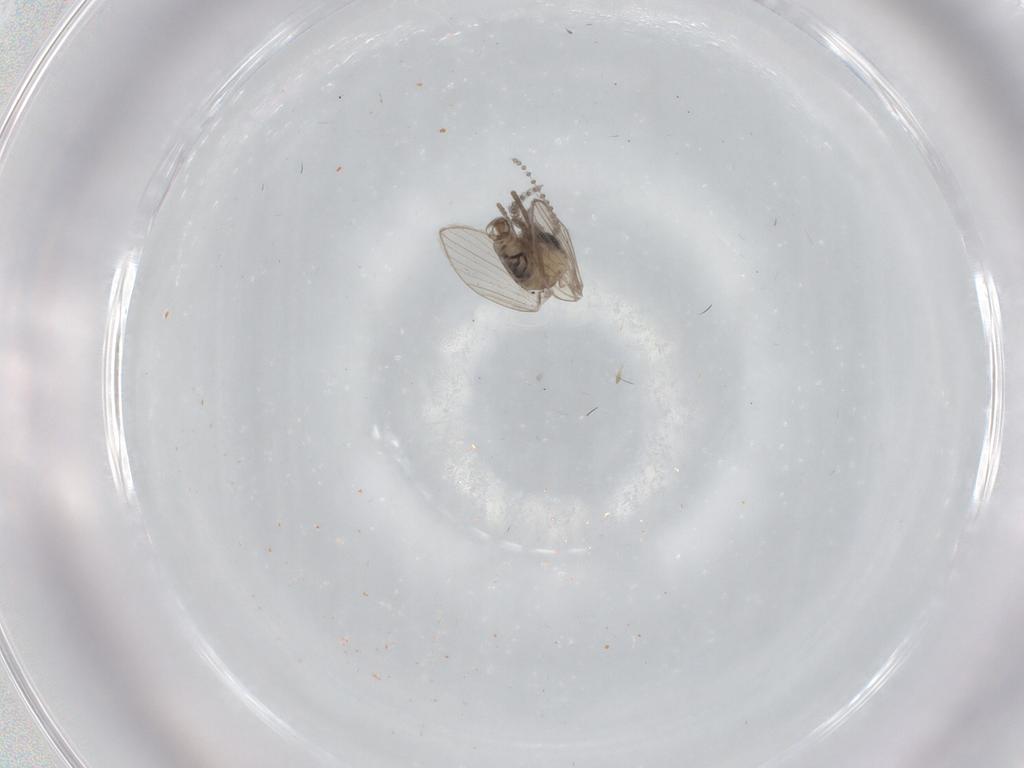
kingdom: Animalia
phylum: Arthropoda
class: Insecta
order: Diptera
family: Psychodidae
